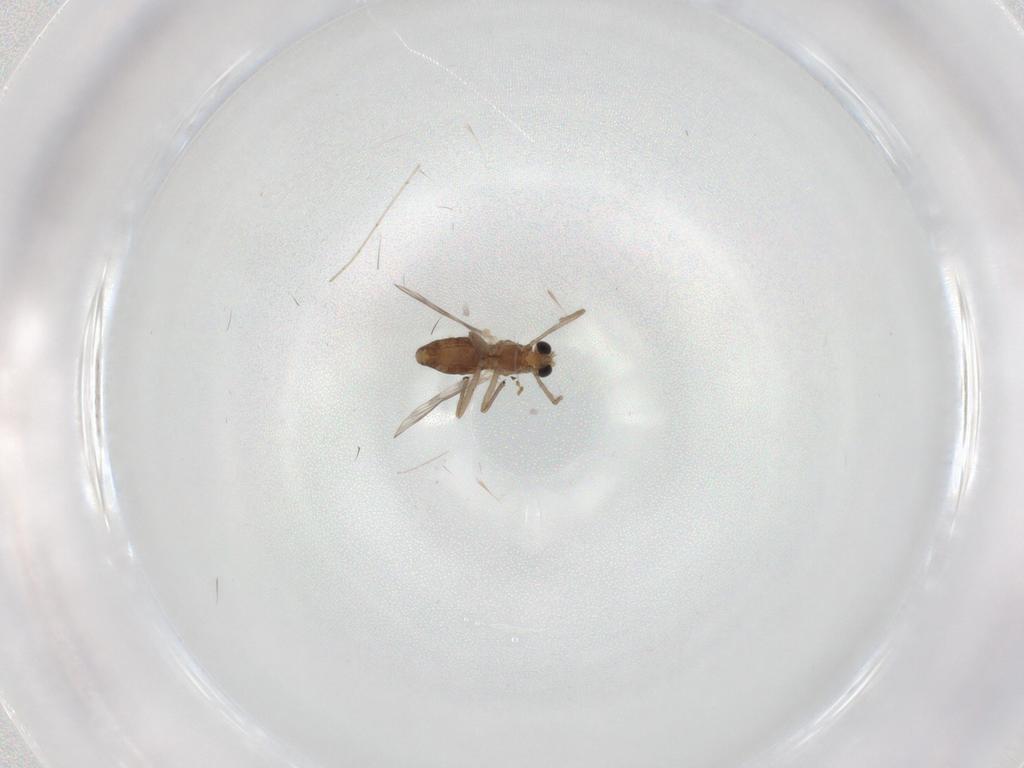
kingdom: Animalia
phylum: Arthropoda
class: Insecta
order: Diptera
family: Chironomidae
